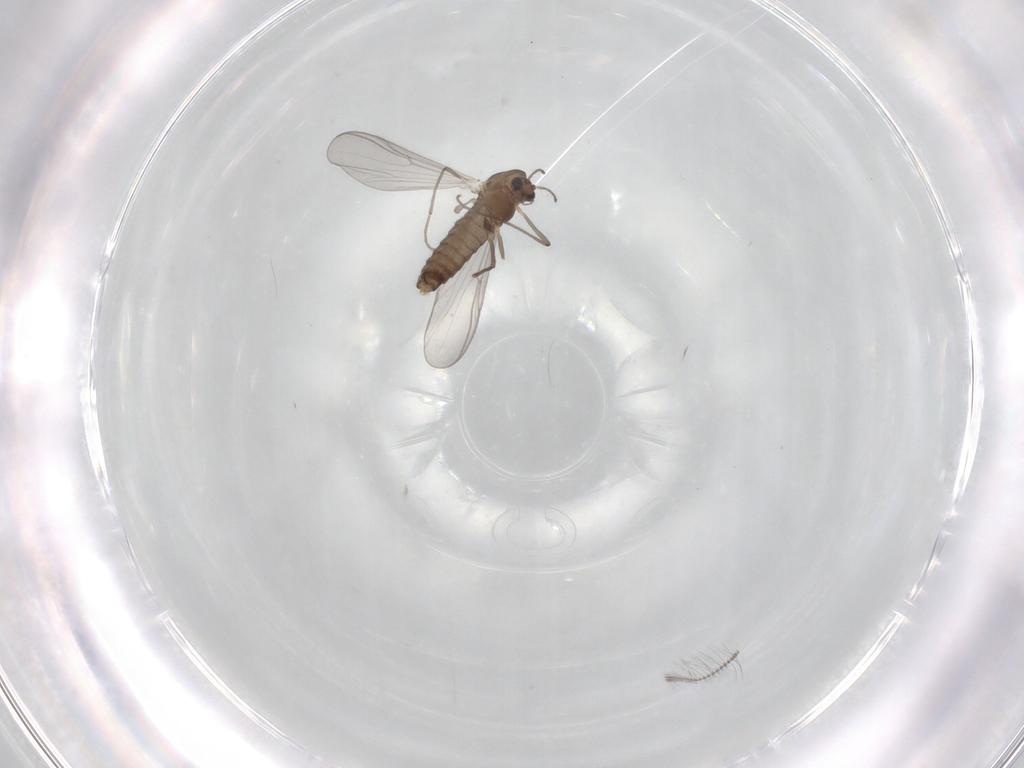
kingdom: Animalia
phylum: Arthropoda
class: Insecta
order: Diptera
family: Chironomidae
